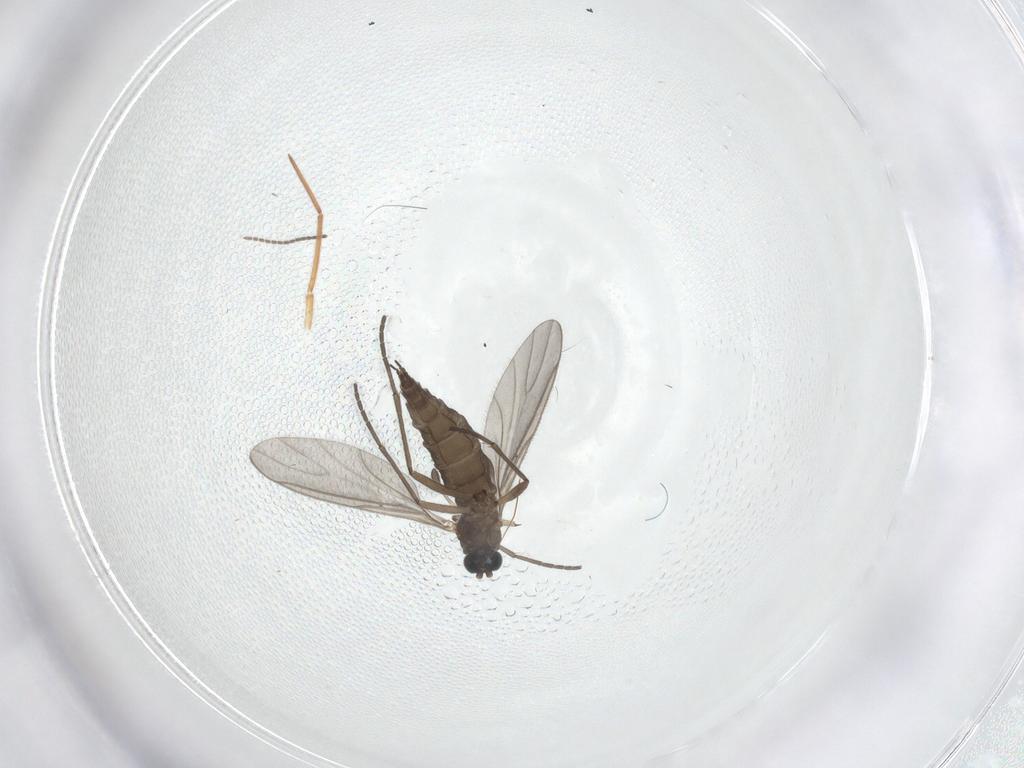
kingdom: Animalia
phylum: Arthropoda
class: Insecta
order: Diptera
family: Sciaridae
